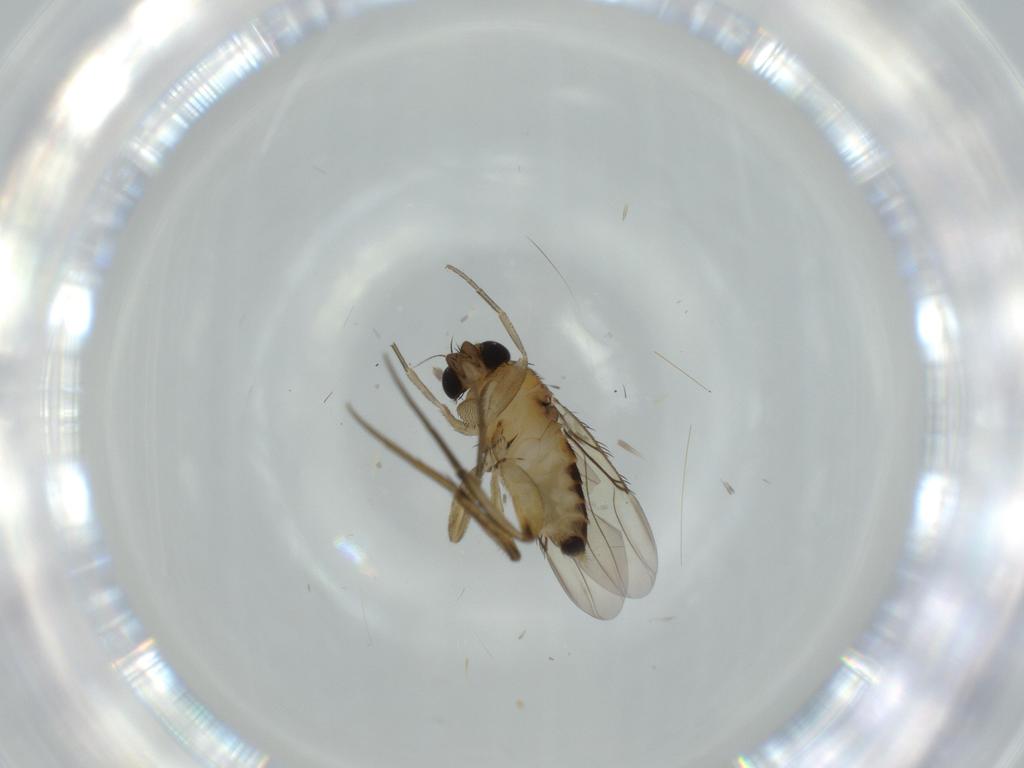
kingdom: Animalia
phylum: Arthropoda
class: Insecta
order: Diptera
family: Phoridae
